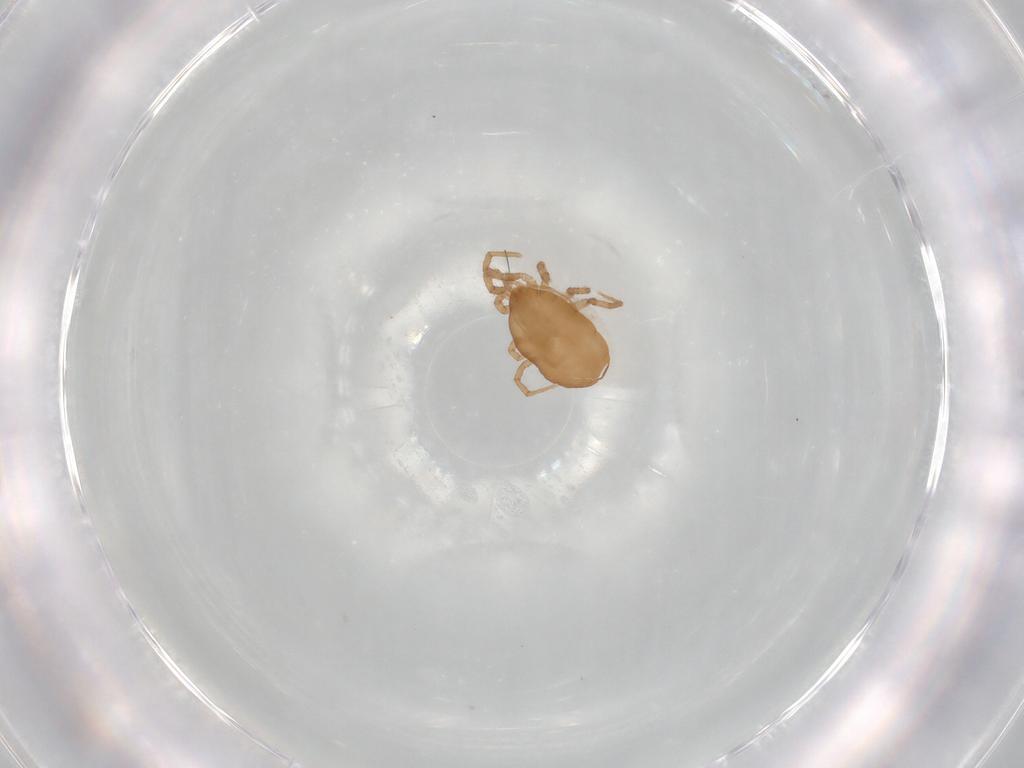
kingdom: Animalia
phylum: Arthropoda
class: Arachnida
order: Mesostigmata
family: Parasitidae
